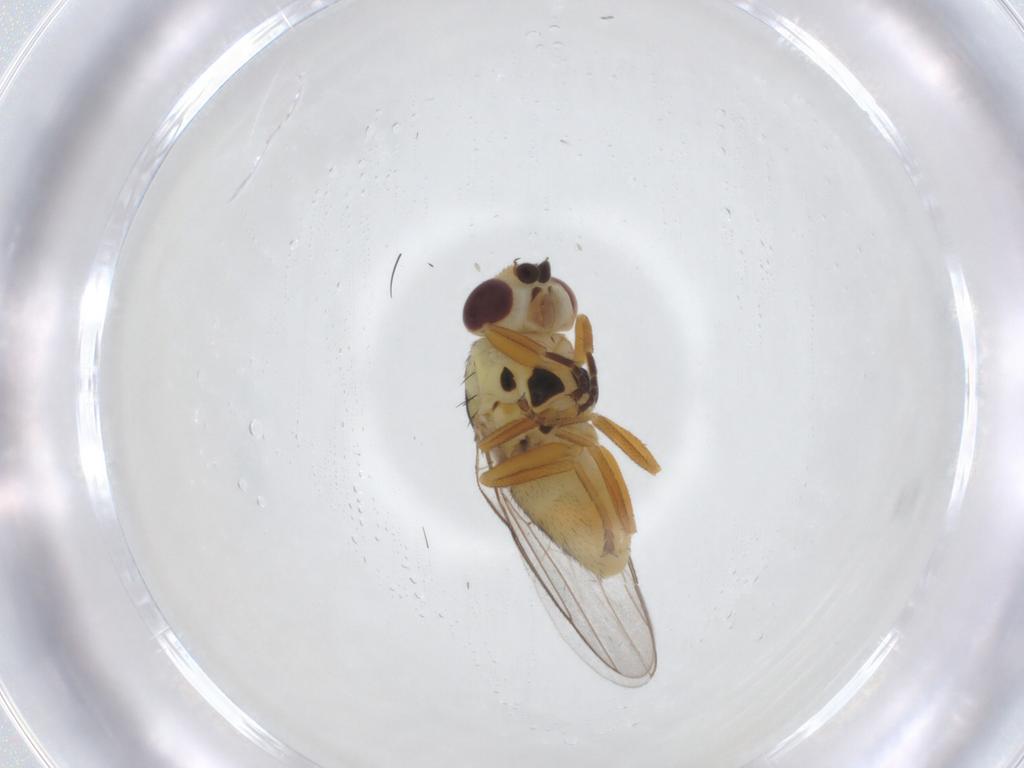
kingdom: Animalia
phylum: Arthropoda
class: Insecta
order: Diptera
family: Chloropidae
